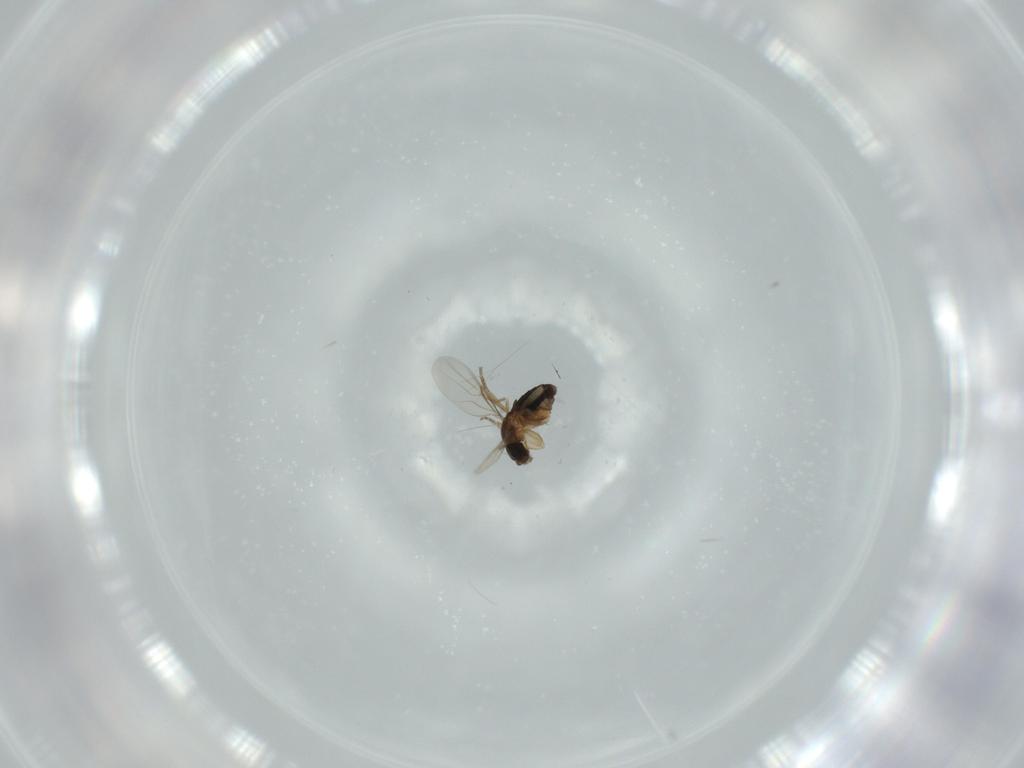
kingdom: Animalia
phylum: Arthropoda
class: Insecta
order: Diptera
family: Phoridae
